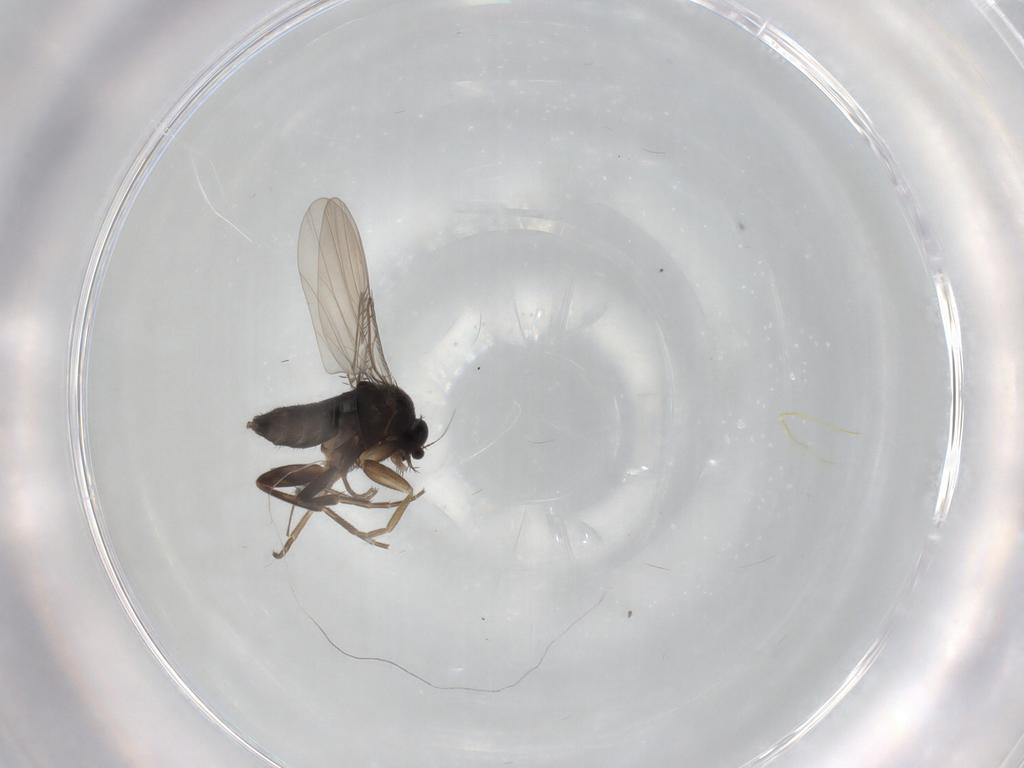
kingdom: Animalia
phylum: Arthropoda
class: Insecta
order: Diptera
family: Phoridae
